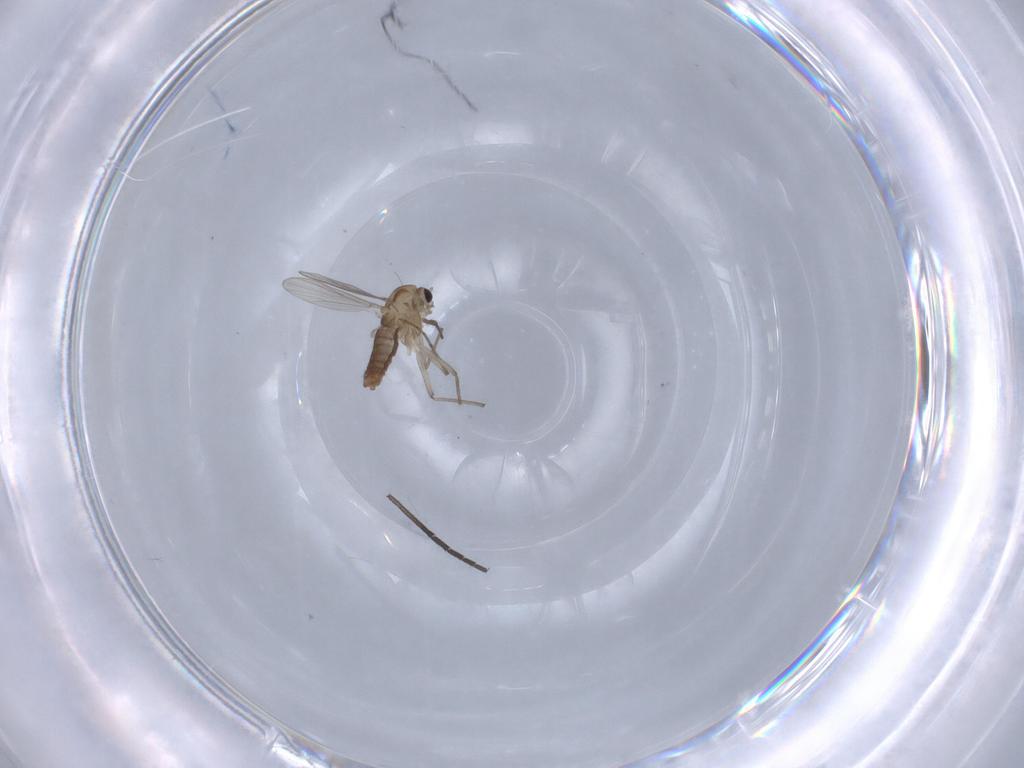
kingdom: Animalia
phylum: Arthropoda
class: Insecta
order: Diptera
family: Chironomidae
